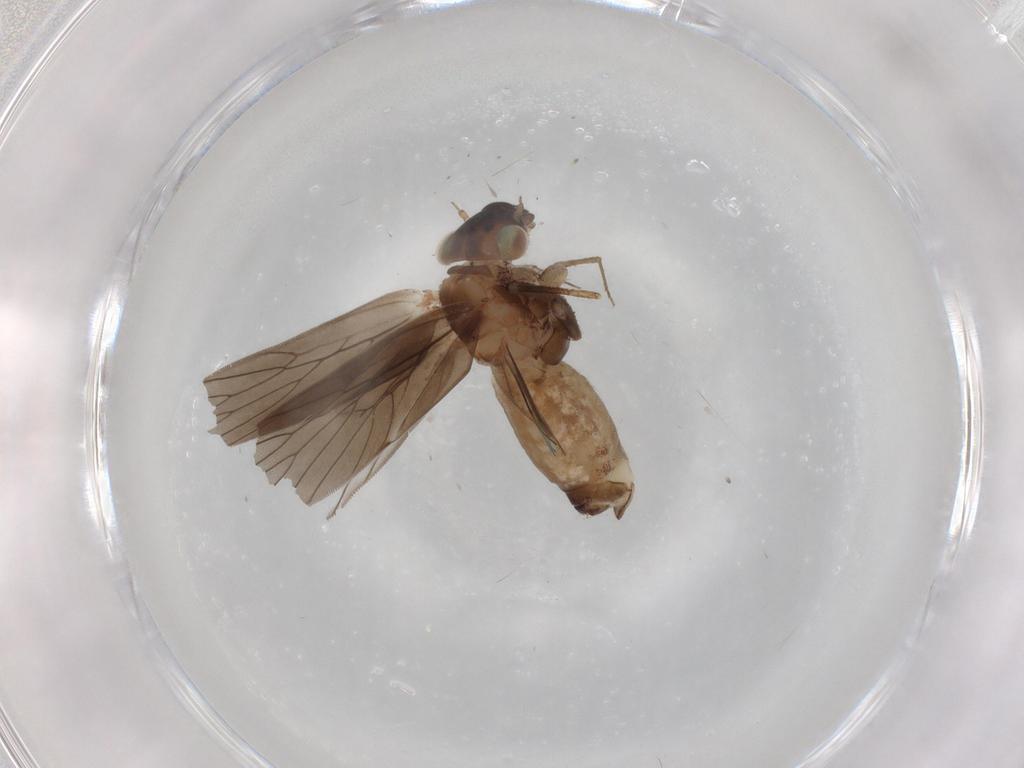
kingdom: Animalia
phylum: Arthropoda
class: Insecta
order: Psocodea
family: Lepidopsocidae
